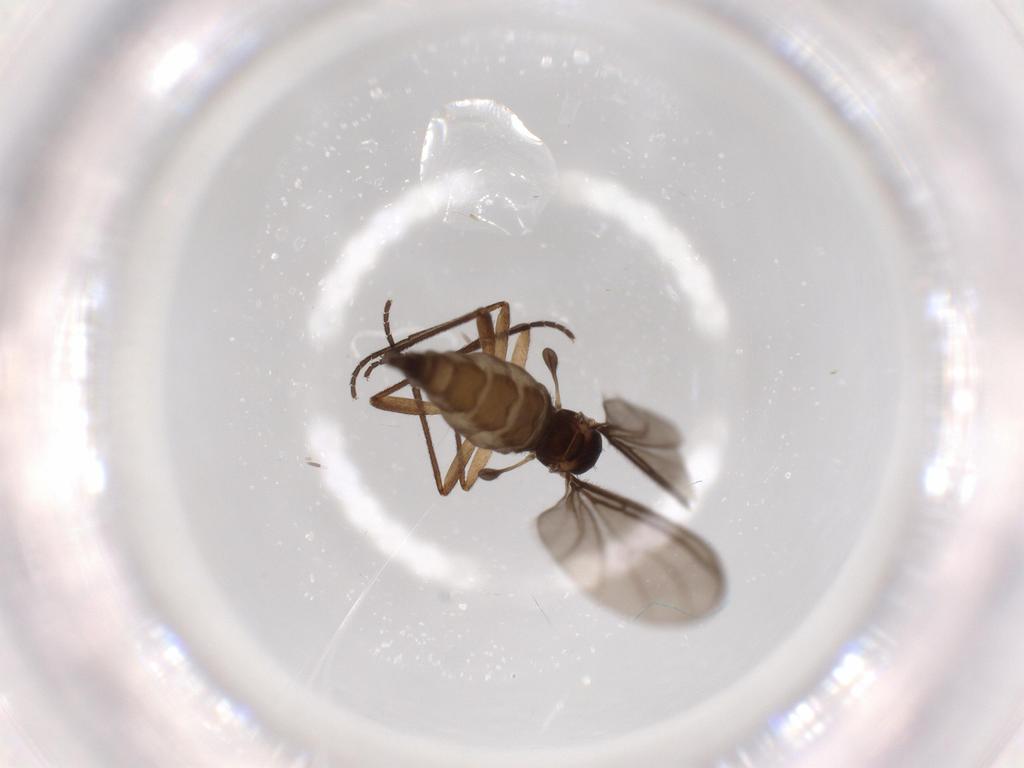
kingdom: Animalia
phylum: Arthropoda
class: Insecta
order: Diptera
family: Sciaridae
